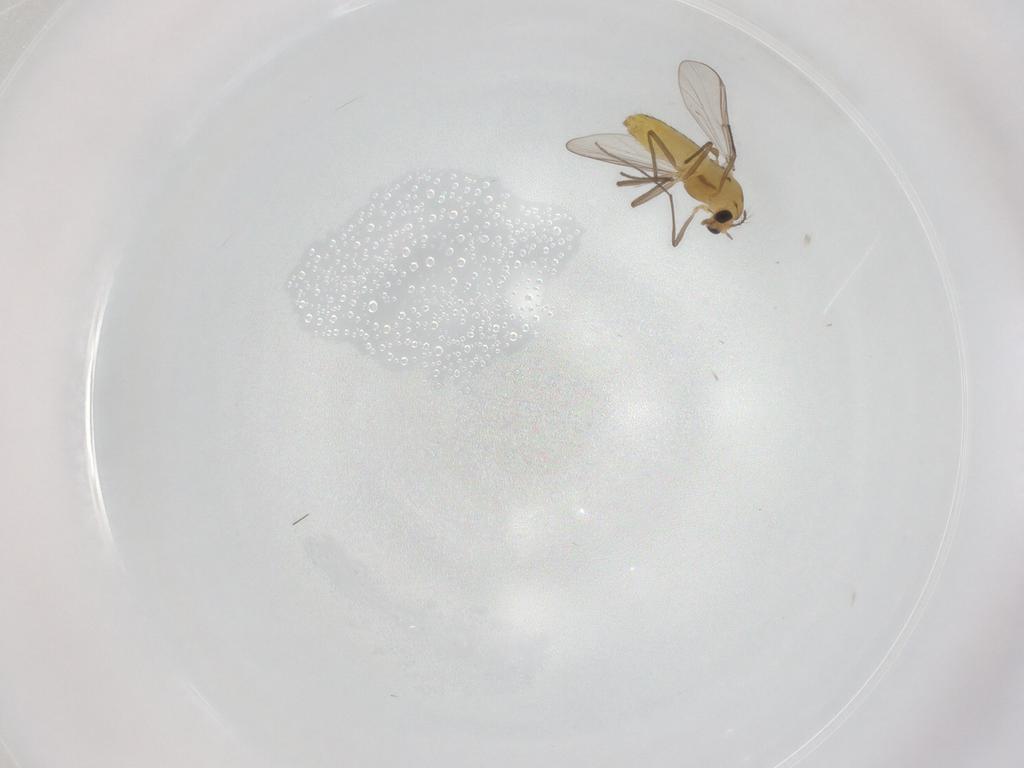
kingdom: Animalia
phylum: Arthropoda
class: Insecta
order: Diptera
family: Chironomidae
